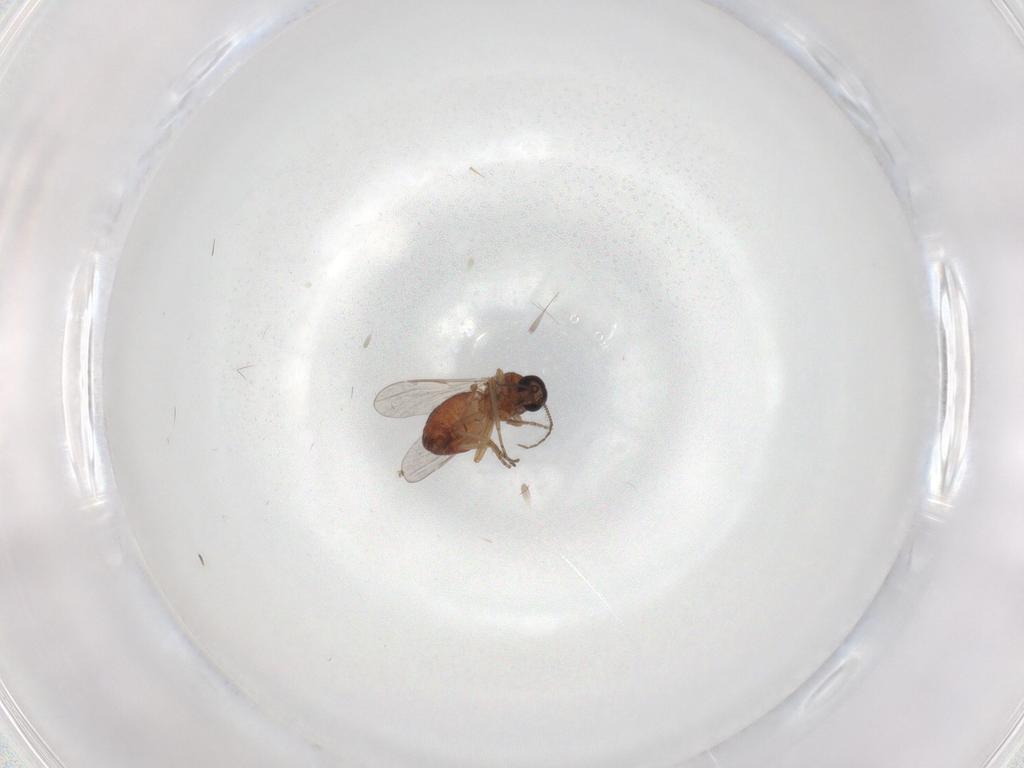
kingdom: Animalia
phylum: Arthropoda
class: Insecta
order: Diptera
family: Ceratopogonidae
